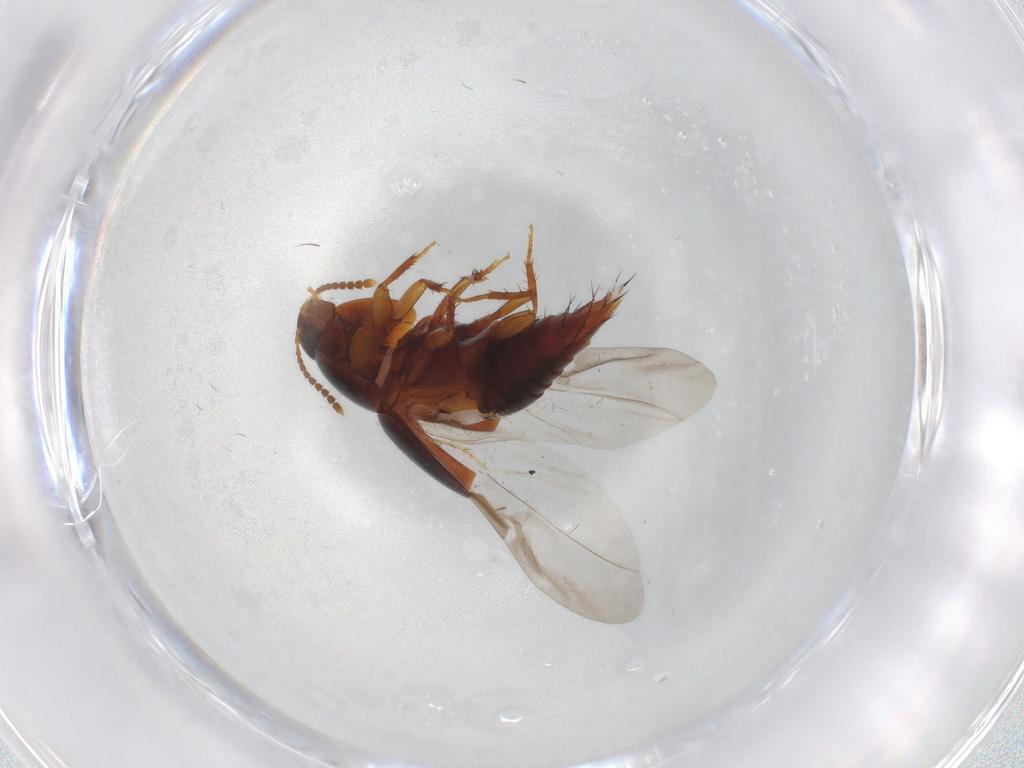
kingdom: Animalia
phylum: Arthropoda
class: Insecta
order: Coleoptera
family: Staphylinidae
